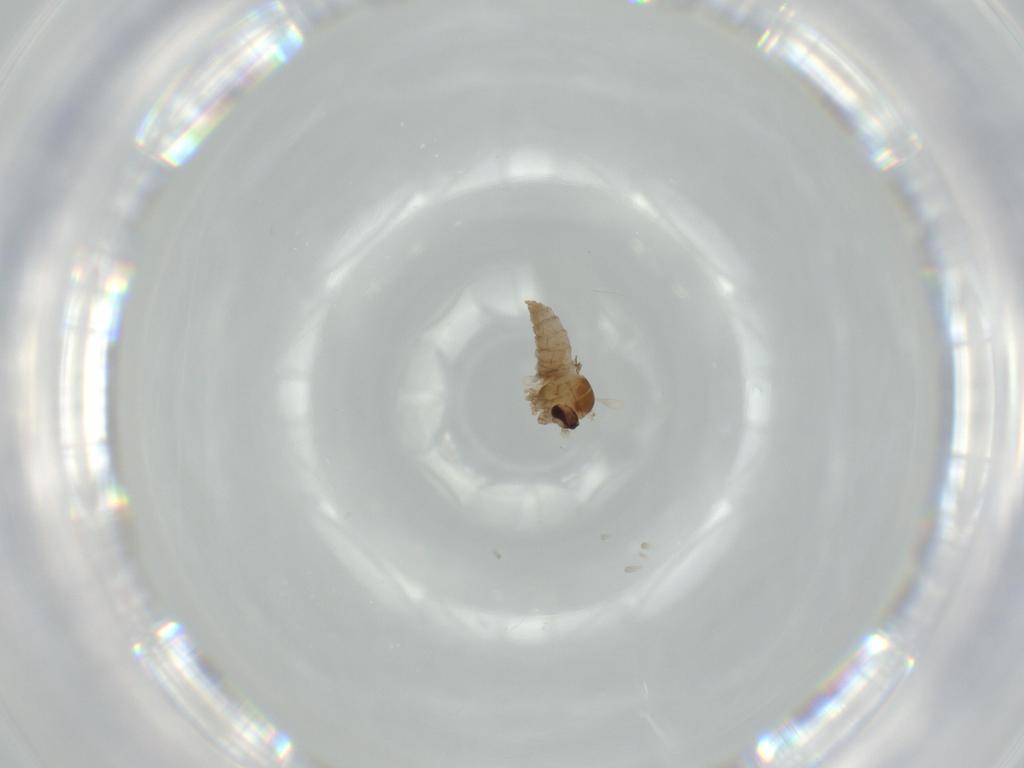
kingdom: Animalia
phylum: Arthropoda
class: Insecta
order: Diptera
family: Cecidomyiidae
